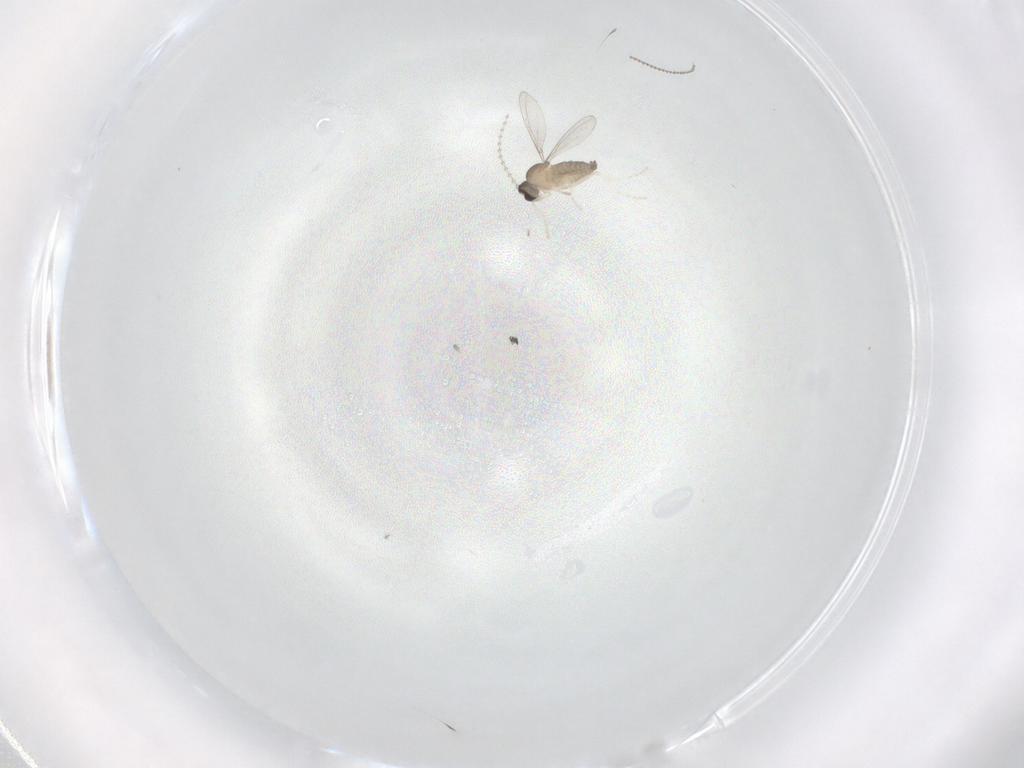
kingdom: Animalia
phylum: Arthropoda
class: Insecta
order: Diptera
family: Cecidomyiidae
